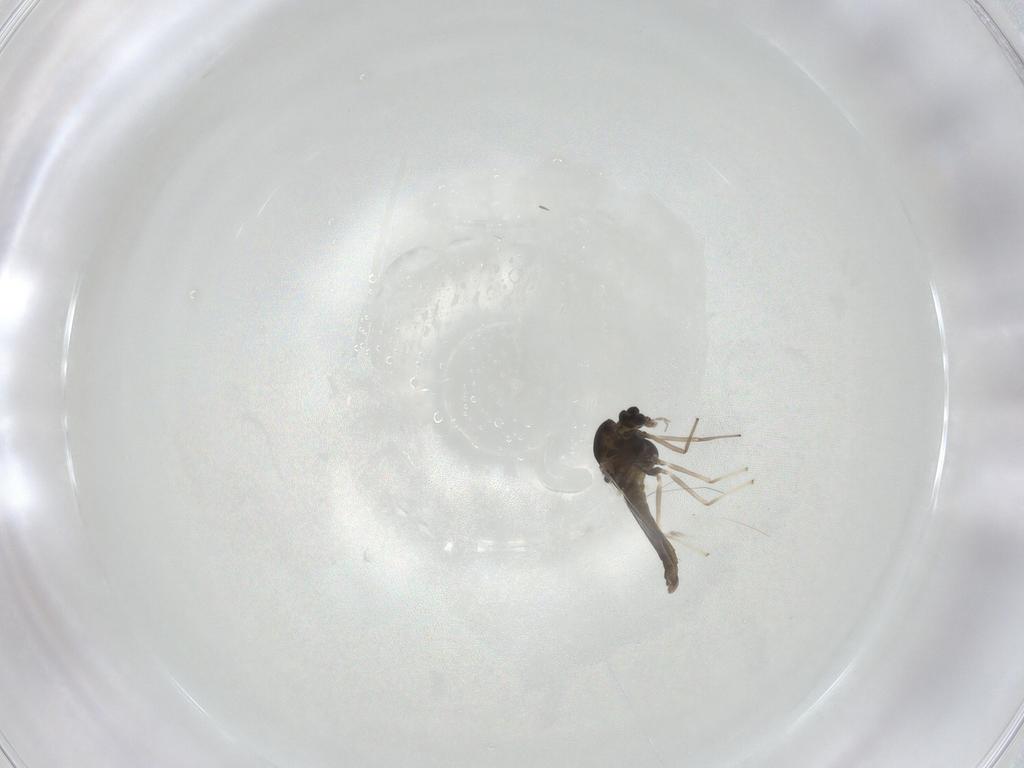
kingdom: Animalia
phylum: Arthropoda
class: Insecta
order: Diptera
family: Chironomidae
